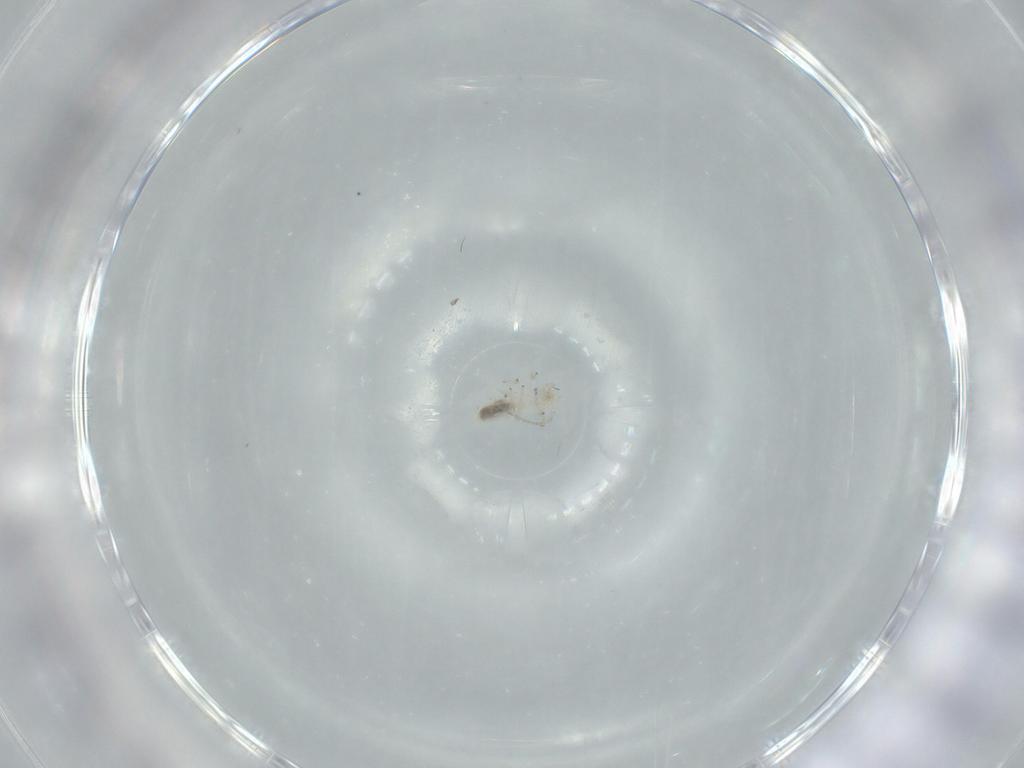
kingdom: Animalia
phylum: Arthropoda
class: Insecta
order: Psocodea
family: Caeciliusidae
